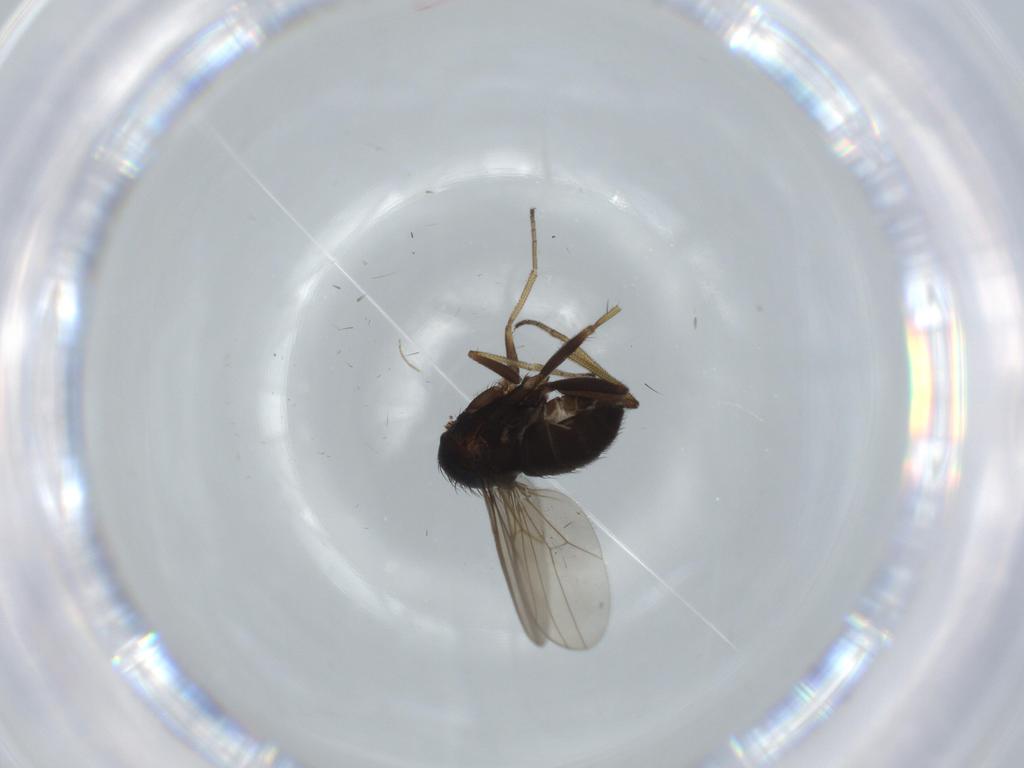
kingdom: Animalia
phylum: Arthropoda
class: Insecta
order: Diptera
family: Dolichopodidae
